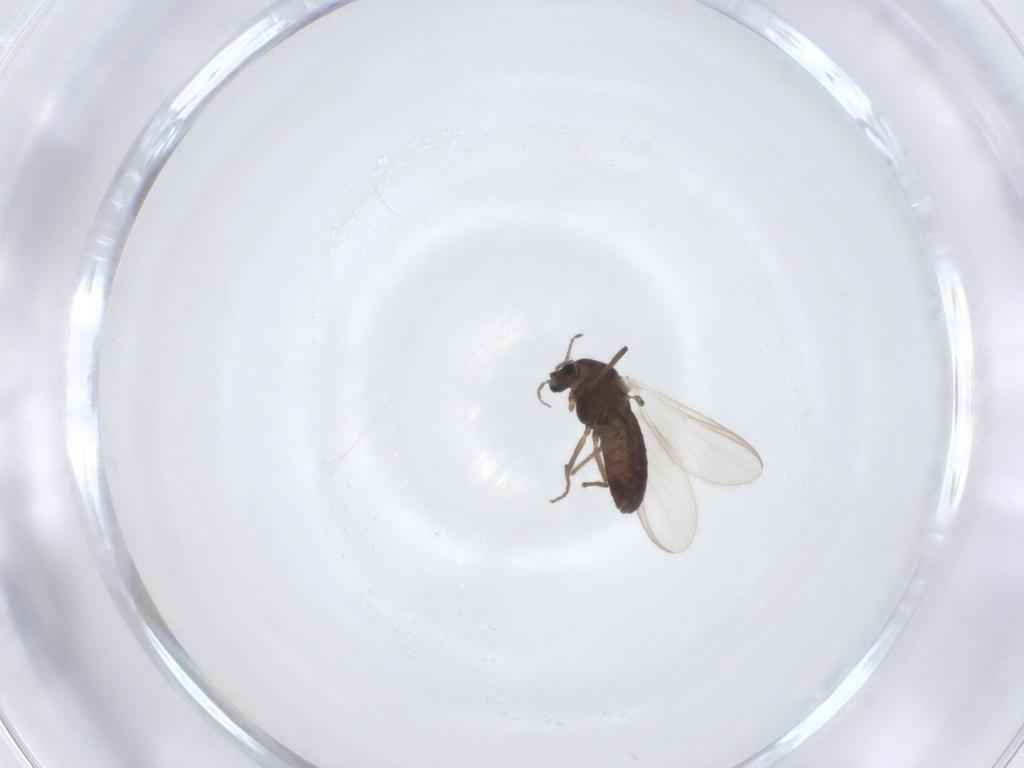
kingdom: Animalia
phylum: Arthropoda
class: Insecta
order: Diptera
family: Chironomidae
